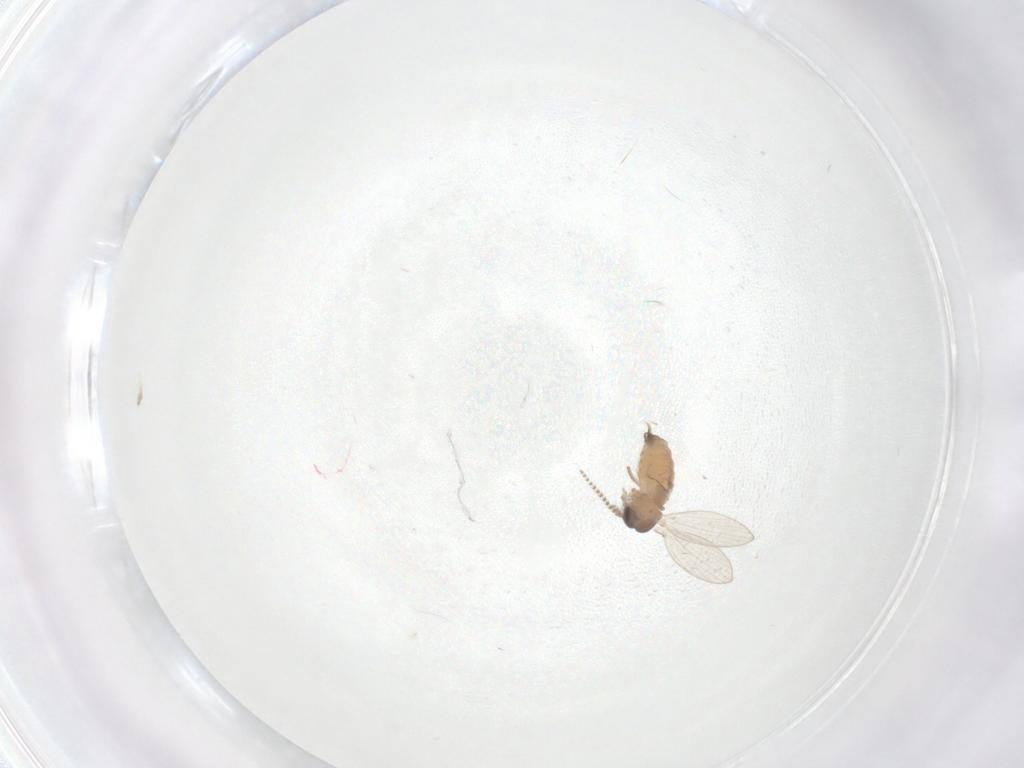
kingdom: Animalia
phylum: Arthropoda
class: Insecta
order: Diptera
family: Psychodidae
